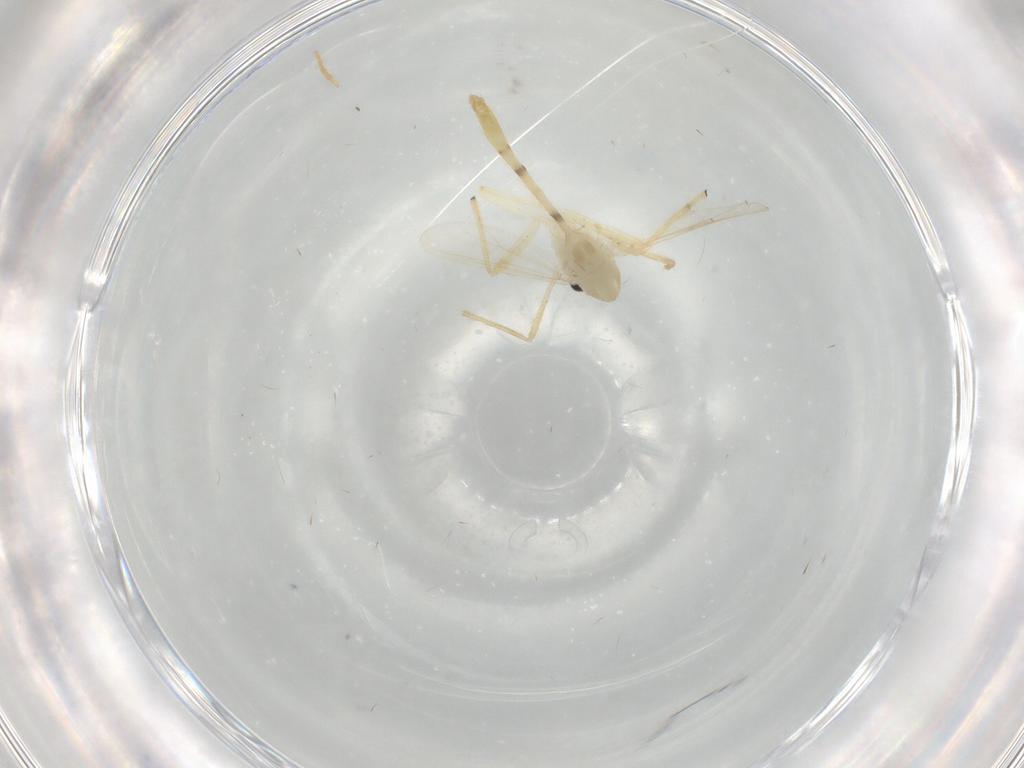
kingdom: Animalia
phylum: Arthropoda
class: Insecta
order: Diptera
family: Chironomidae
